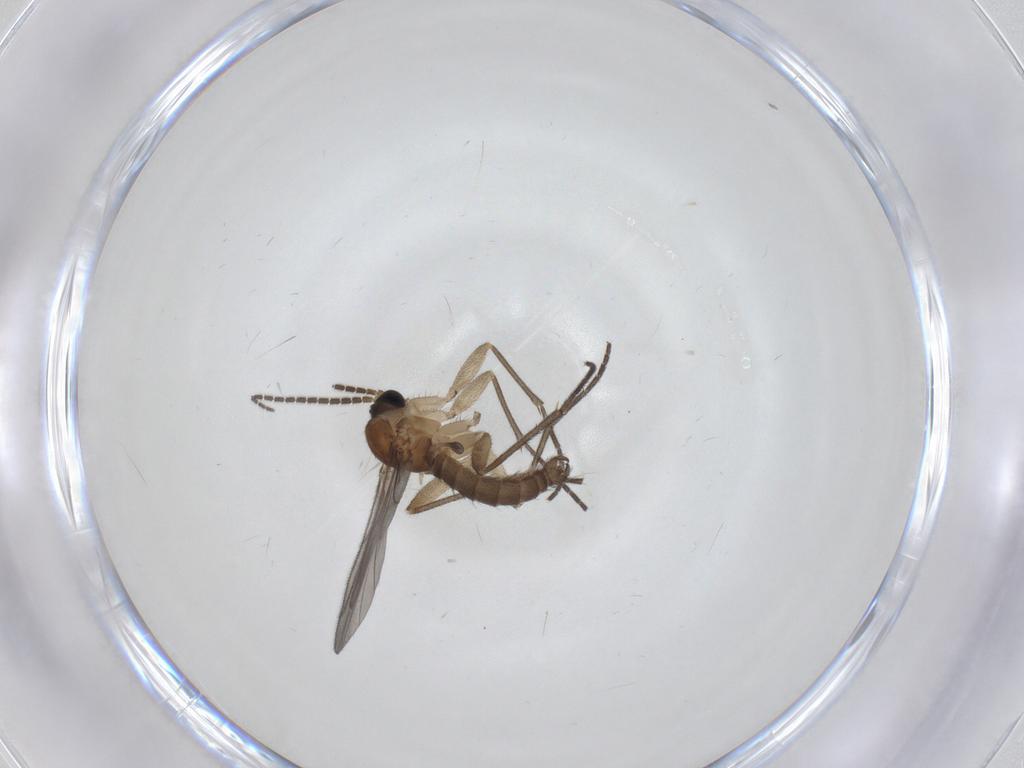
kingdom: Animalia
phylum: Arthropoda
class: Insecta
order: Diptera
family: Sciaridae
